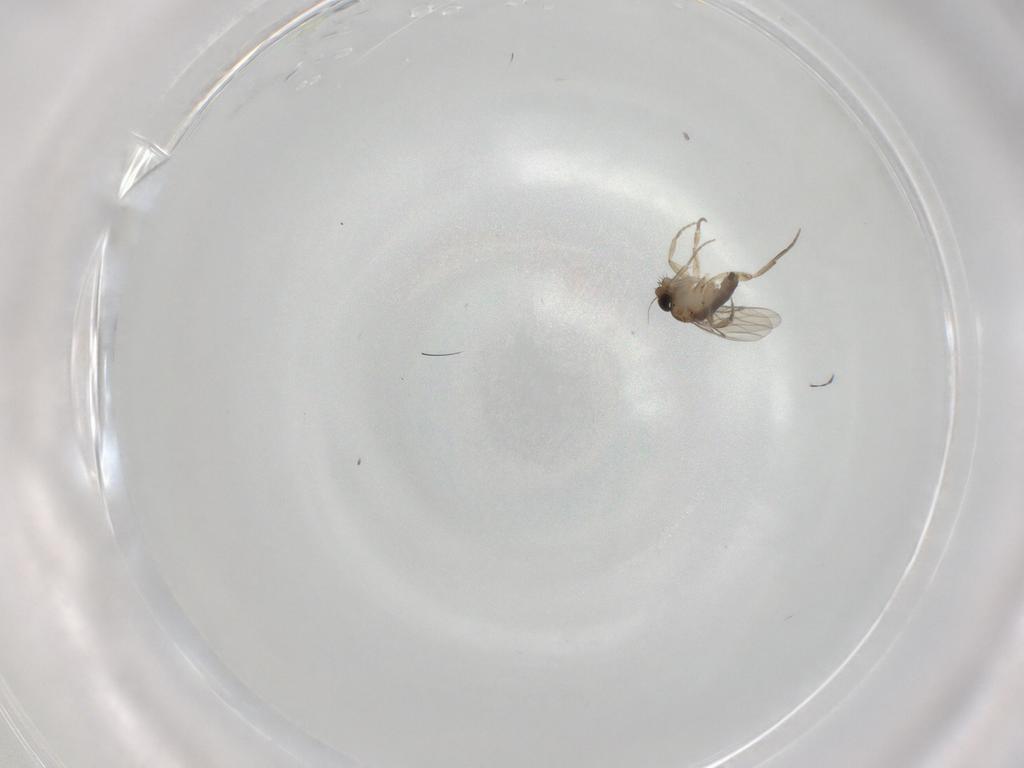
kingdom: Animalia
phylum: Arthropoda
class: Insecta
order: Diptera
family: Phoridae
